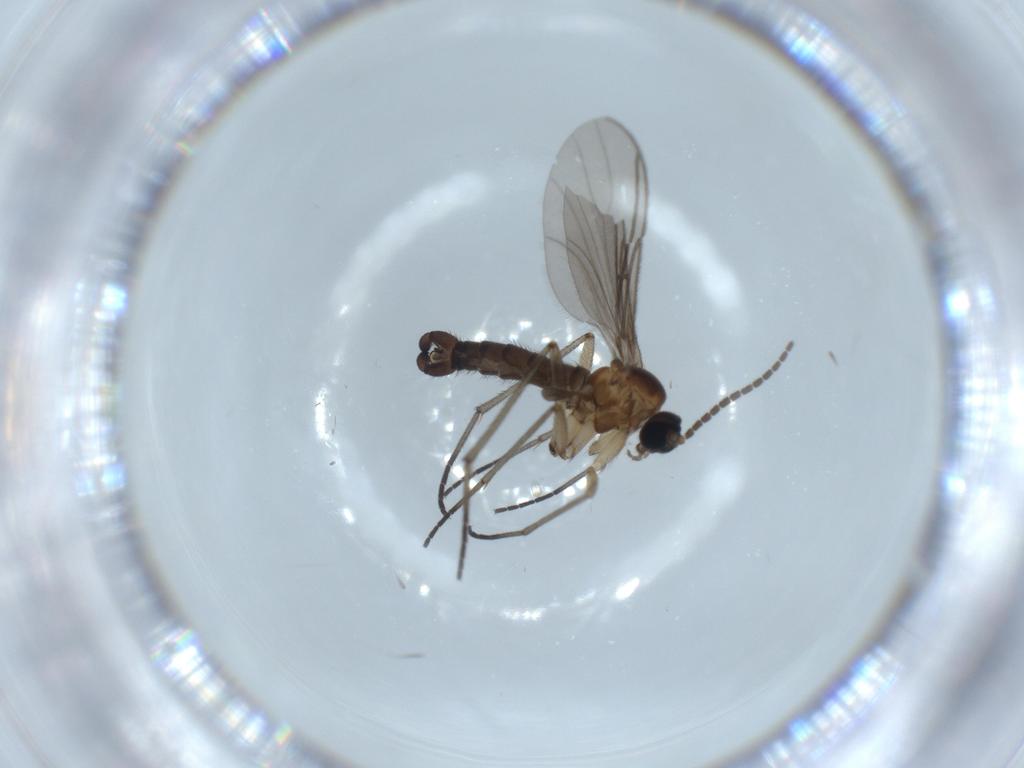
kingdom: Animalia
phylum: Arthropoda
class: Insecta
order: Diptera
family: Sciaridae
